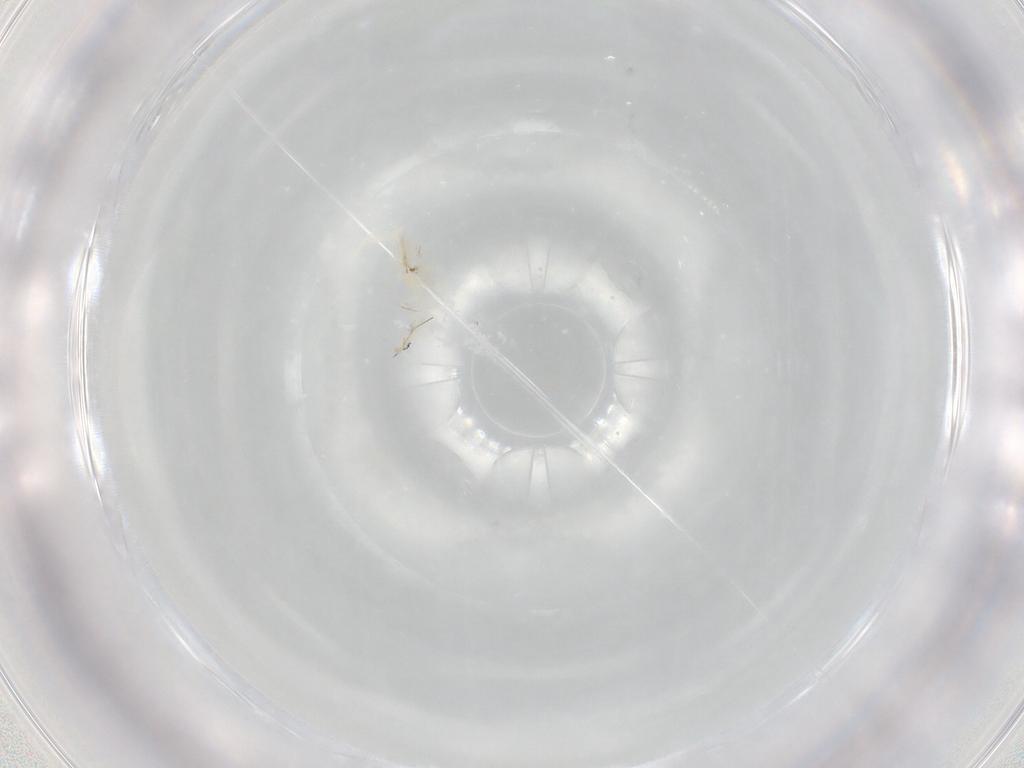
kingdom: Animalia
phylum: Arthropoda
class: Collembola
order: Entomobryomorpha
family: Entomobryidae
